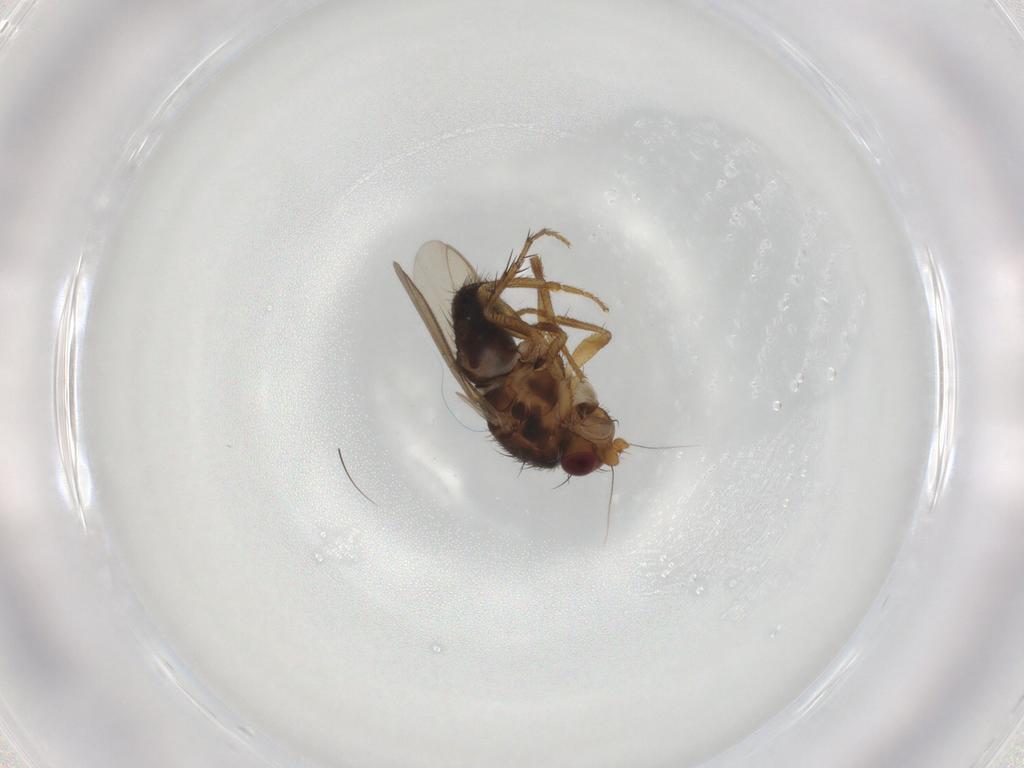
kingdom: Animalia
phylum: Arthropoda
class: Insecta
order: Diptera
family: Sphaeroceridae
